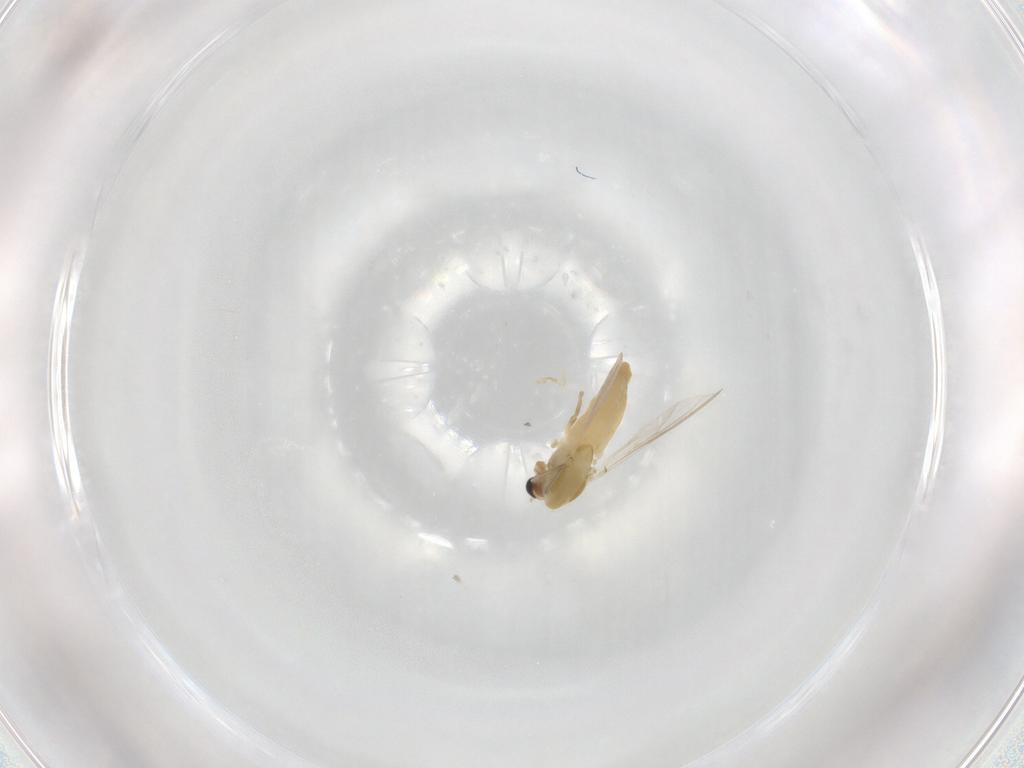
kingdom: Animalia
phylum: Arthropoda
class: Insecta
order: Diptera
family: Chironomidae
